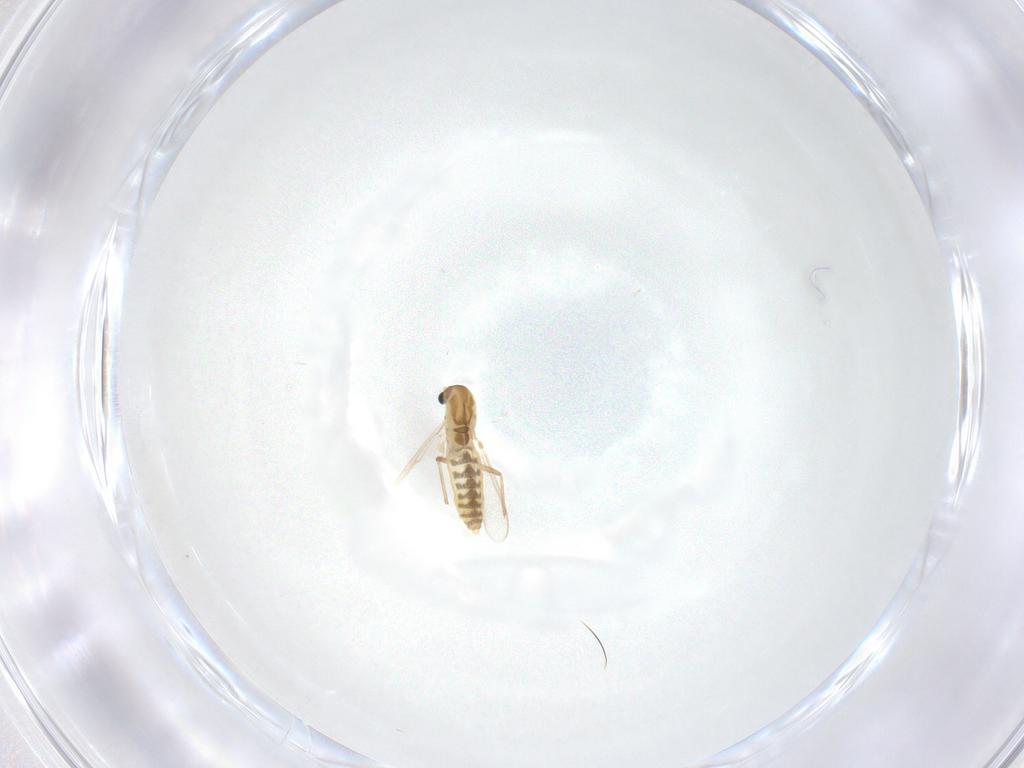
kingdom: Animalia
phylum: Arthropoda
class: Insecta
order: Diptera
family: Chironomidae
